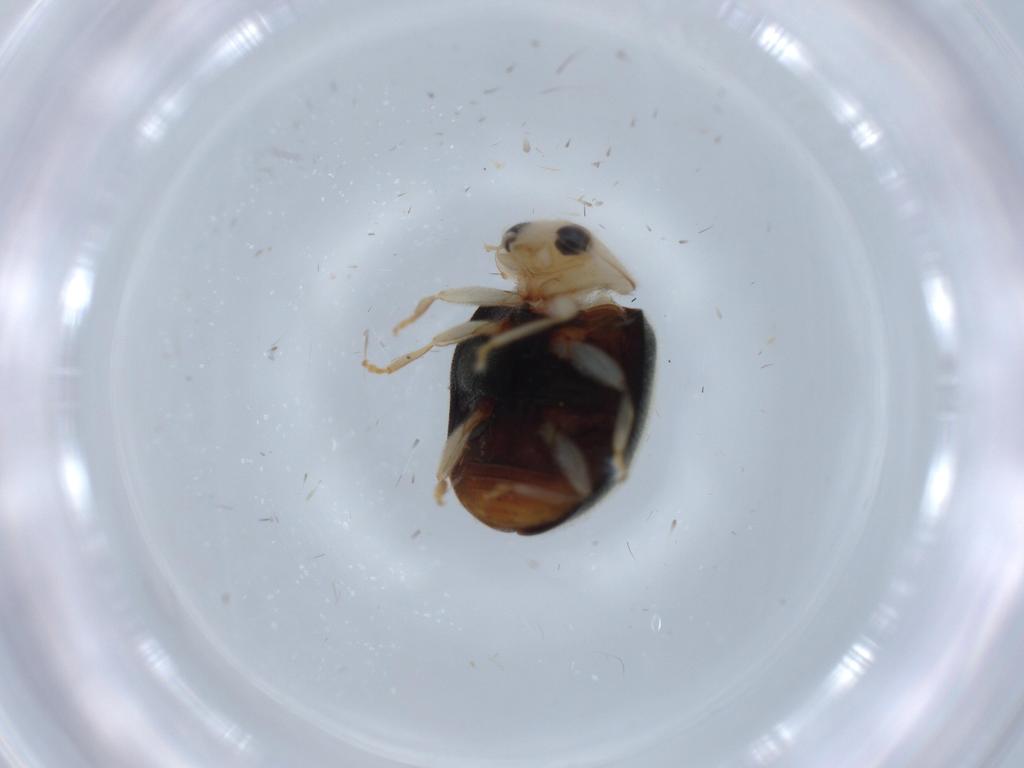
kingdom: Animalia
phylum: Arthropoda
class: Insecta
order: Coleoptera
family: Coccinellidae
